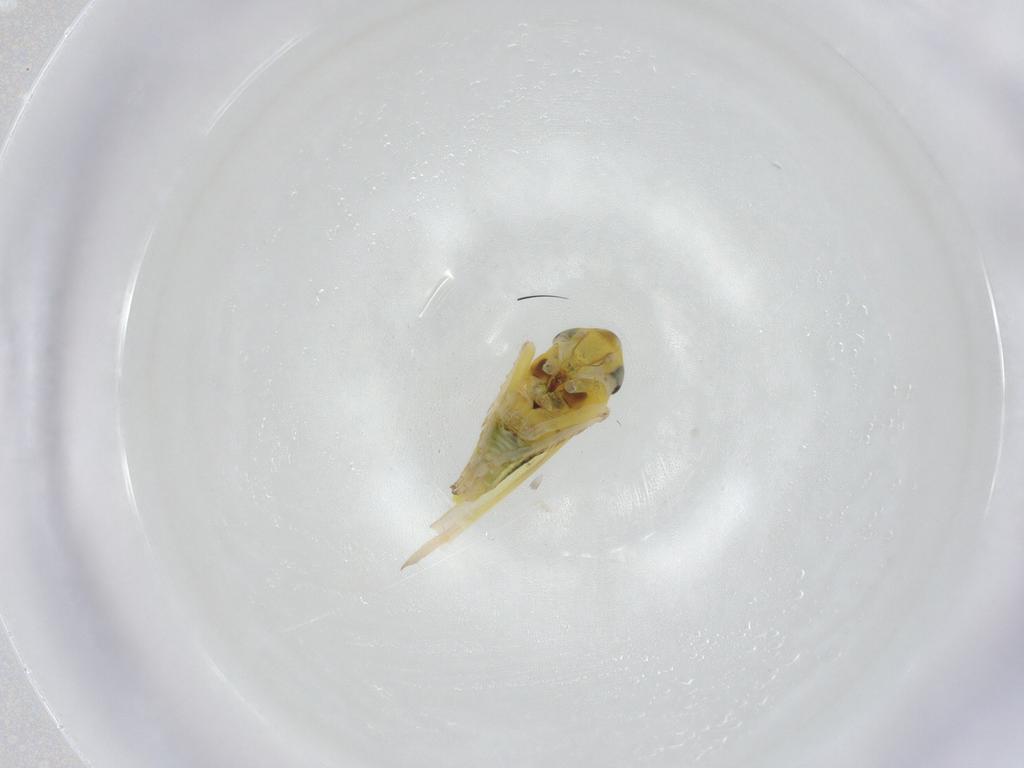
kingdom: Animalia
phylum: Arthropoda
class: Insecta
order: Hemiptera
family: Cicadellidae
